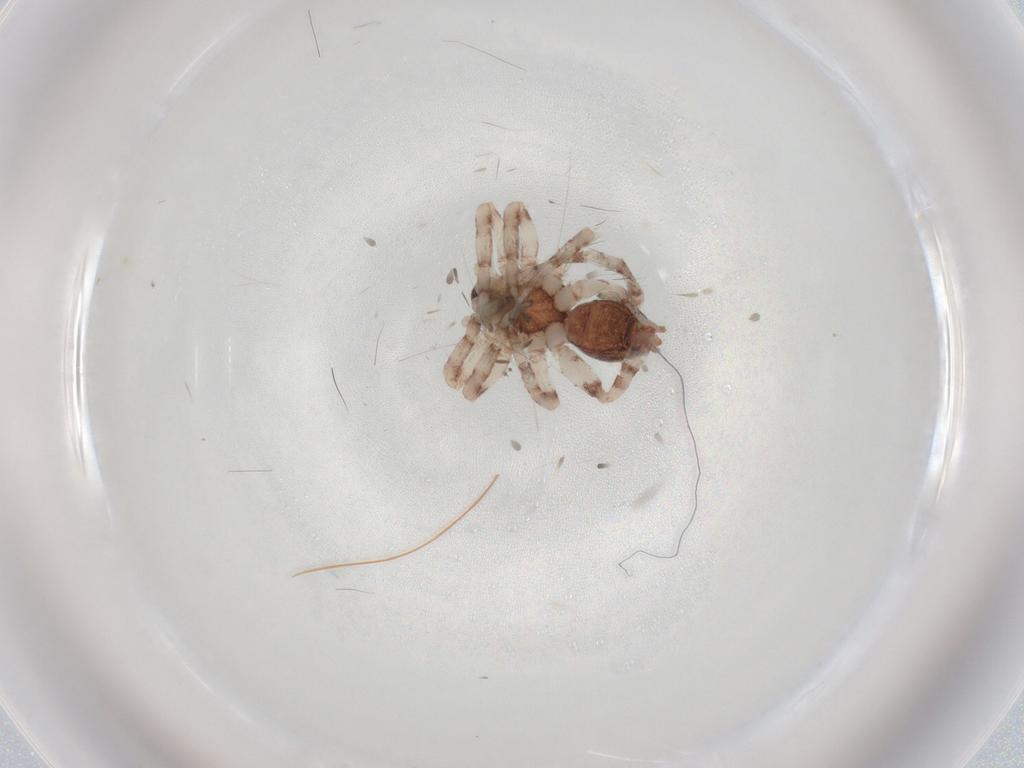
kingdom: Animalia
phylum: Arthropoda
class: Arachnida
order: Araneae
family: Anyphaenidae
